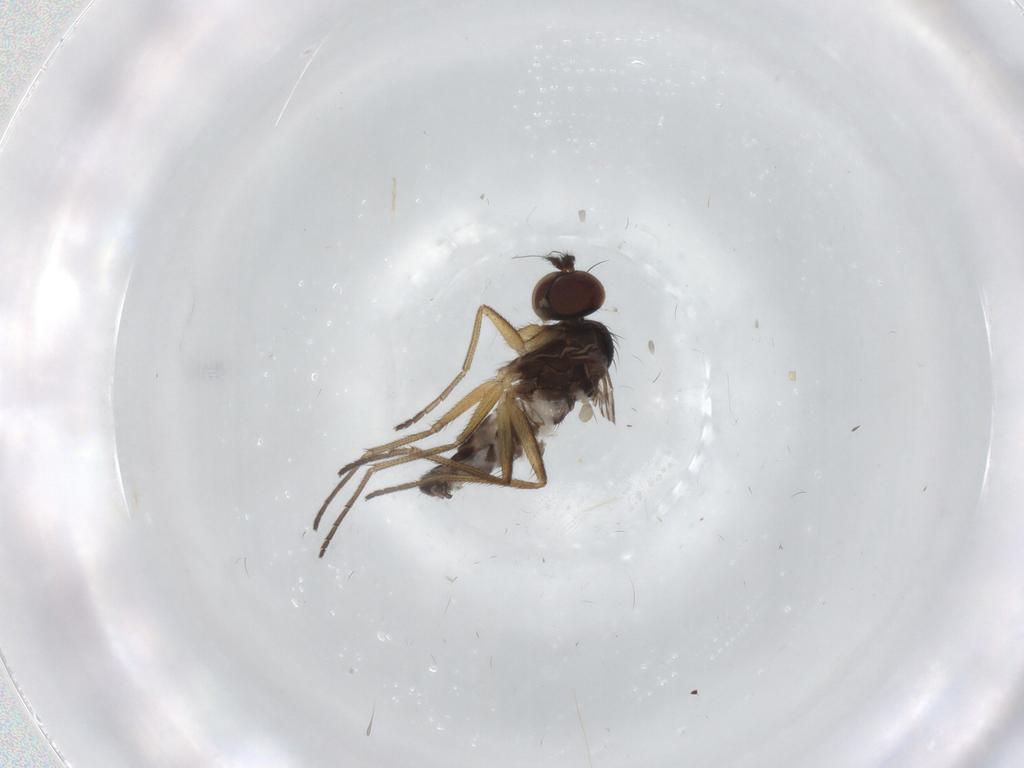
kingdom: Animalia
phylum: Arthropoda
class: Insecta
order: Diptera
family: Dolichopodidae
